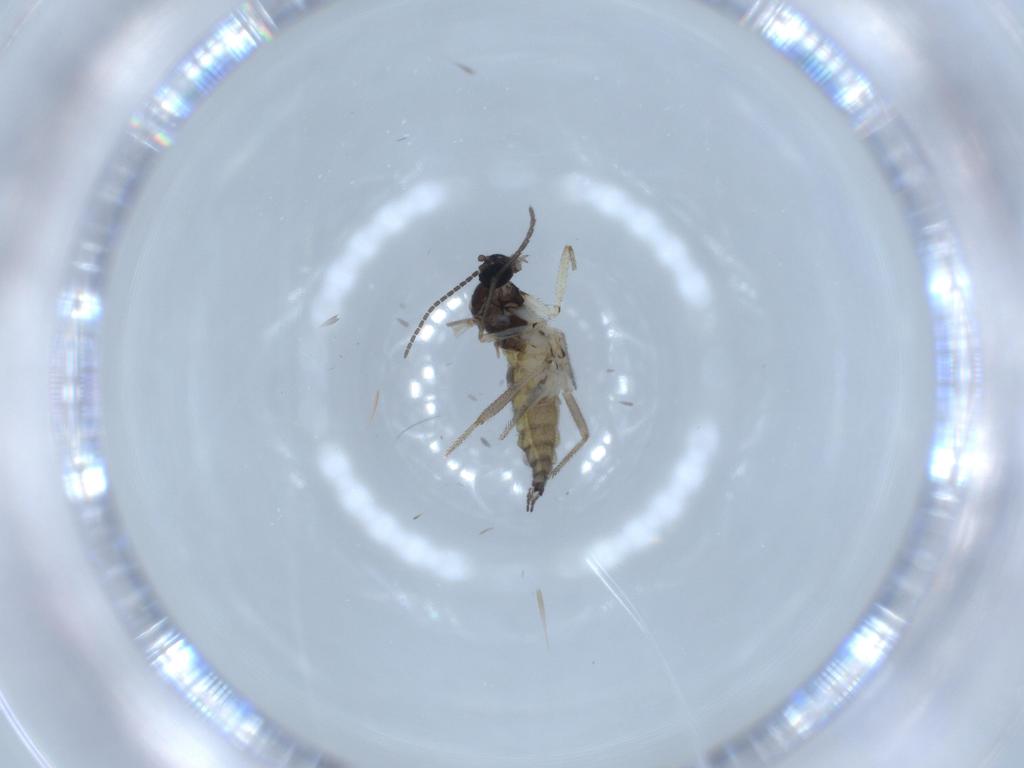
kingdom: Animalia
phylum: Arthropoda
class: Insecta
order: Diptera
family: Sciaridae
